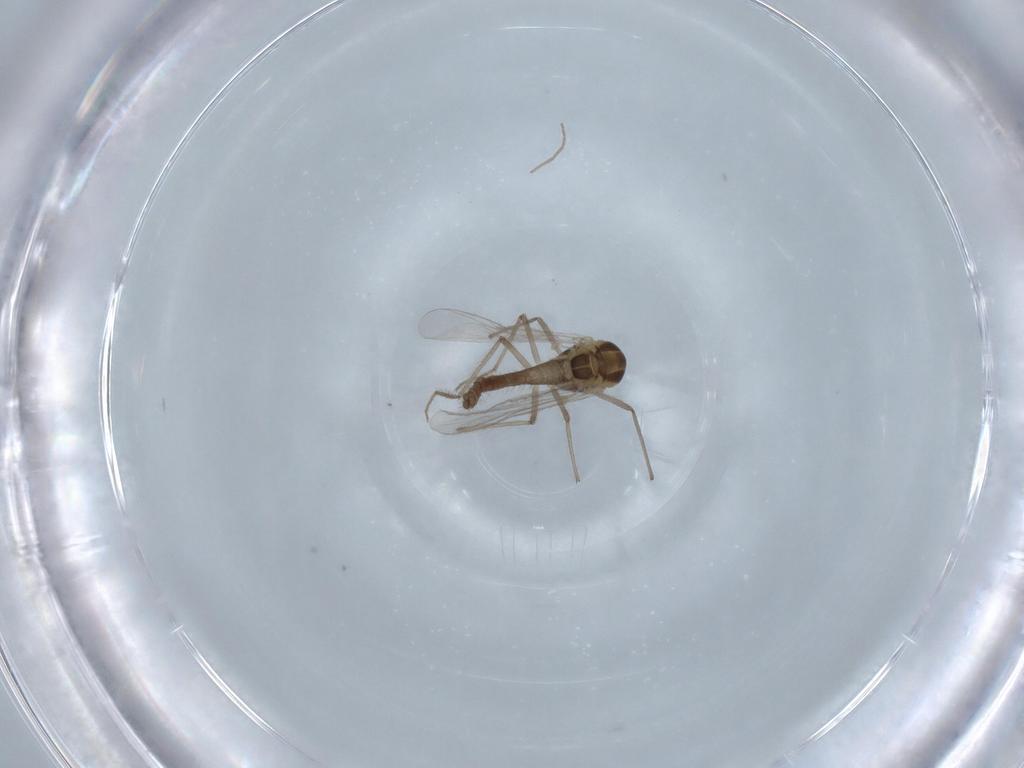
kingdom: Animalia
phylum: Arthropoda
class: Insecta
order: Diptera
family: Chironomidae
